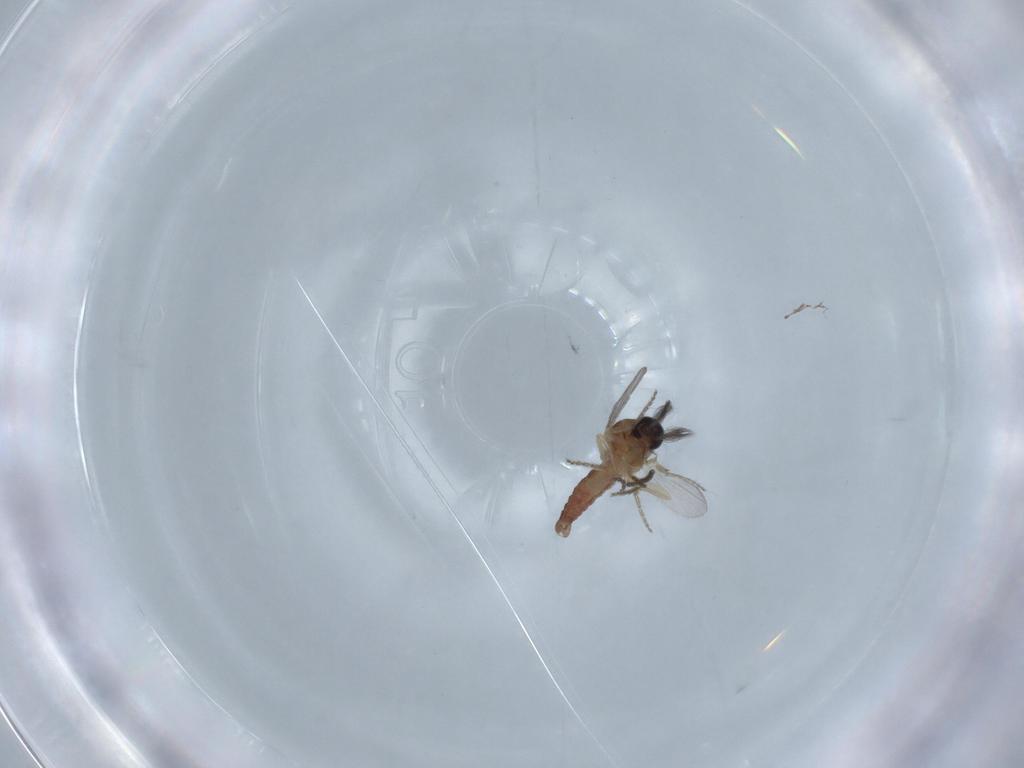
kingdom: Animalia
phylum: Arthropoda
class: Insecta
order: Diptera
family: Ceratopogonidae
